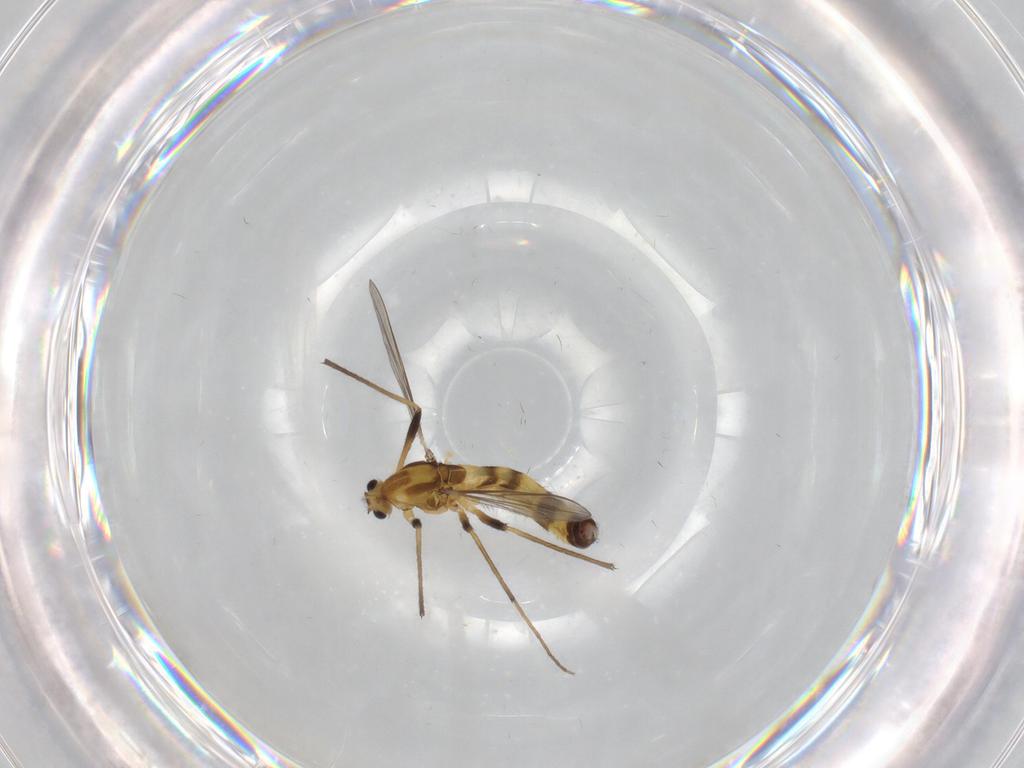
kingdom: Animalia
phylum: Arthropoda
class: Insecta
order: Diptera
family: Chironomidae
